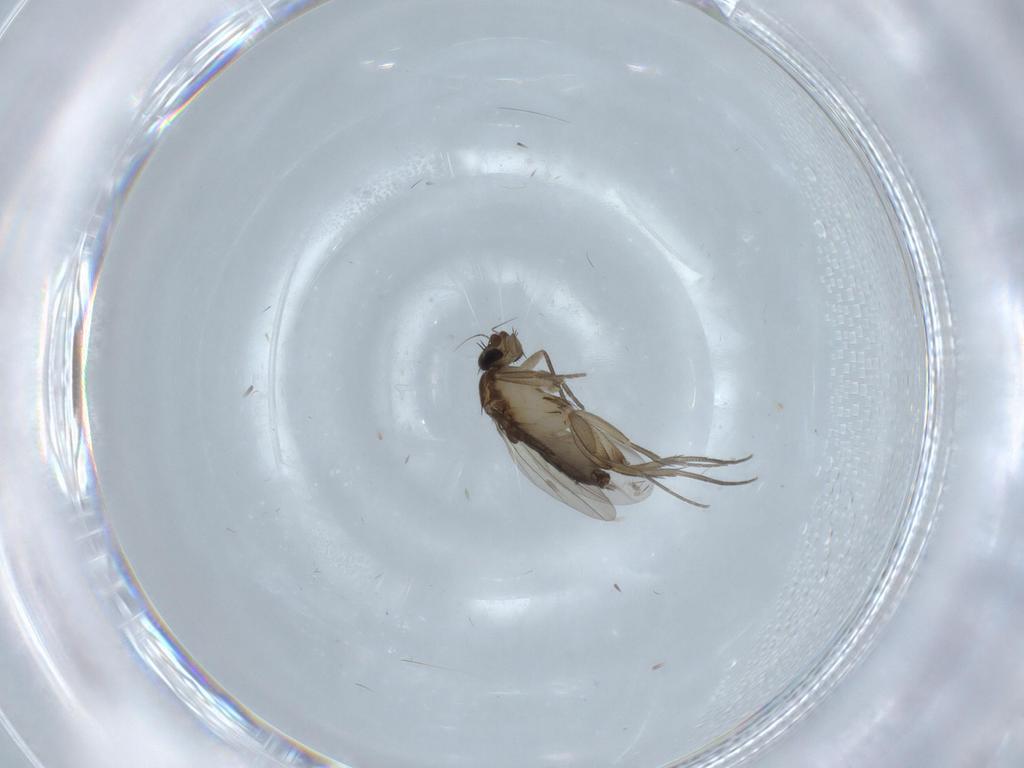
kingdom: Animalia
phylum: Arthropoda
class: Insecta
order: Diptera
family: Phoridae
